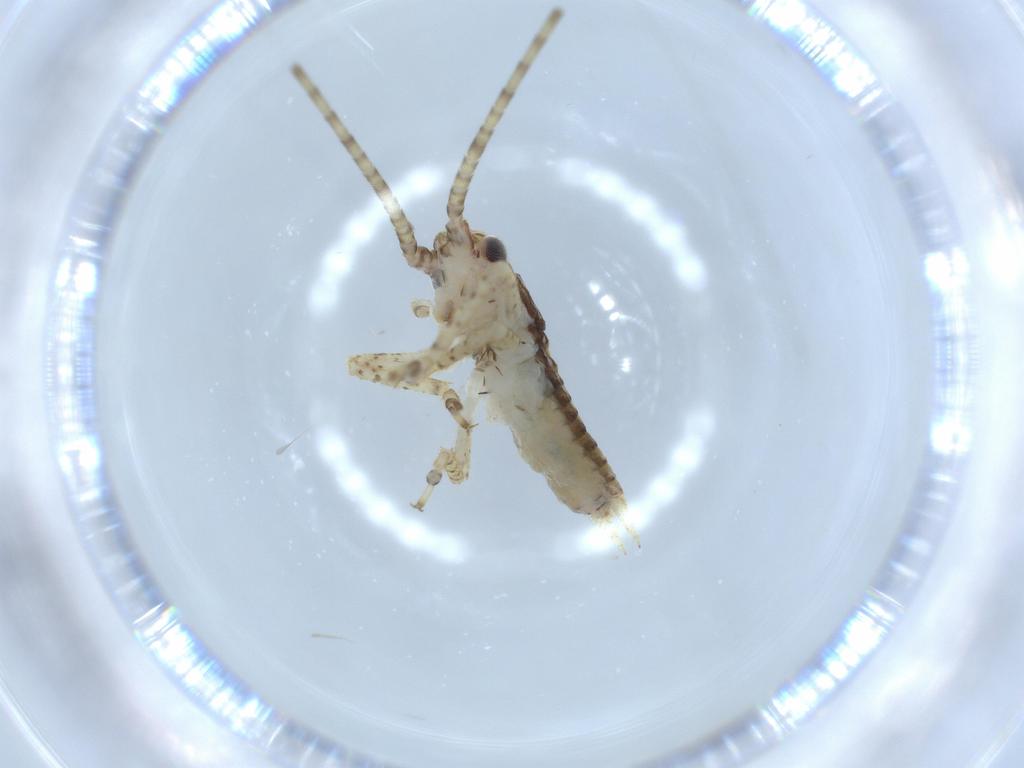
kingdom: Animalia
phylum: Arthropoda
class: Insecta
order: Orthoptera
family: Gryllidae
